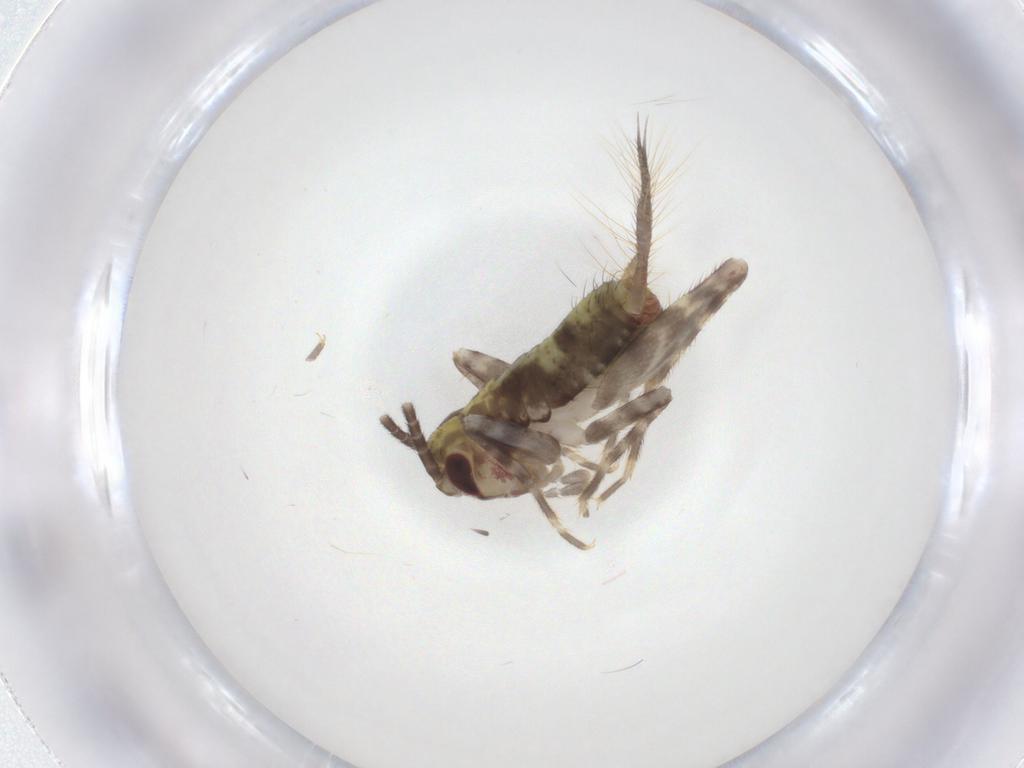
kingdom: Animalia
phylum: Arthropoda
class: Insecta
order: Orthoptera
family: Gryllidae
